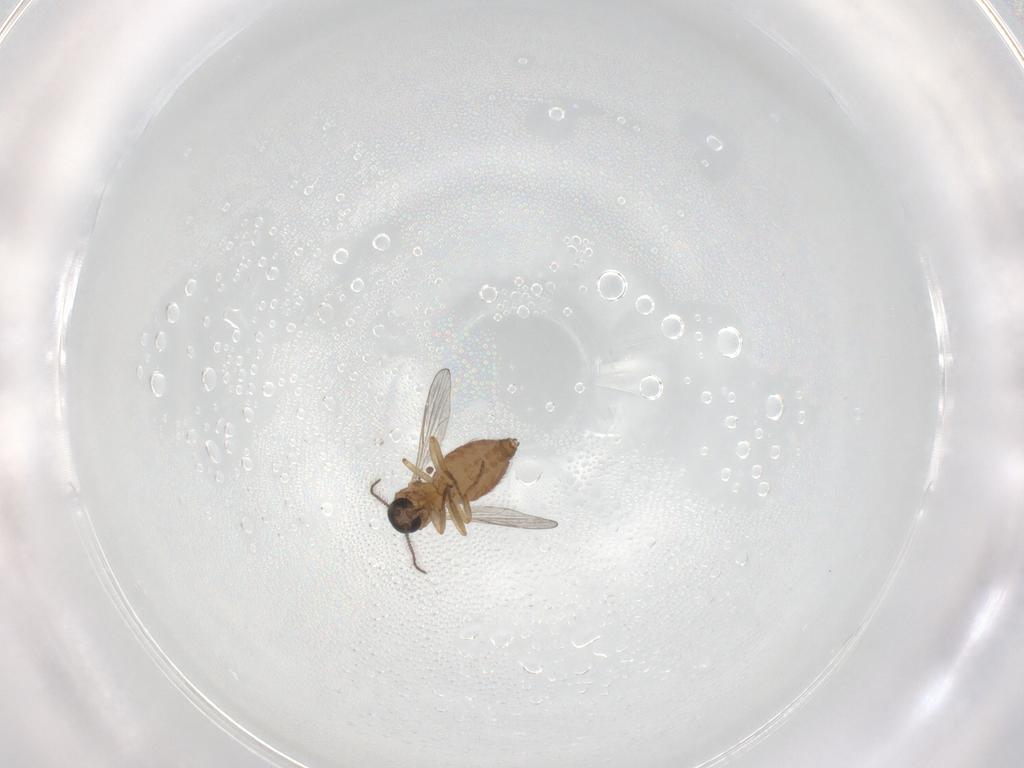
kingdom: Animalia
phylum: Arthropoda
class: Insecta
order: Diptera
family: Ceratopogonidae
